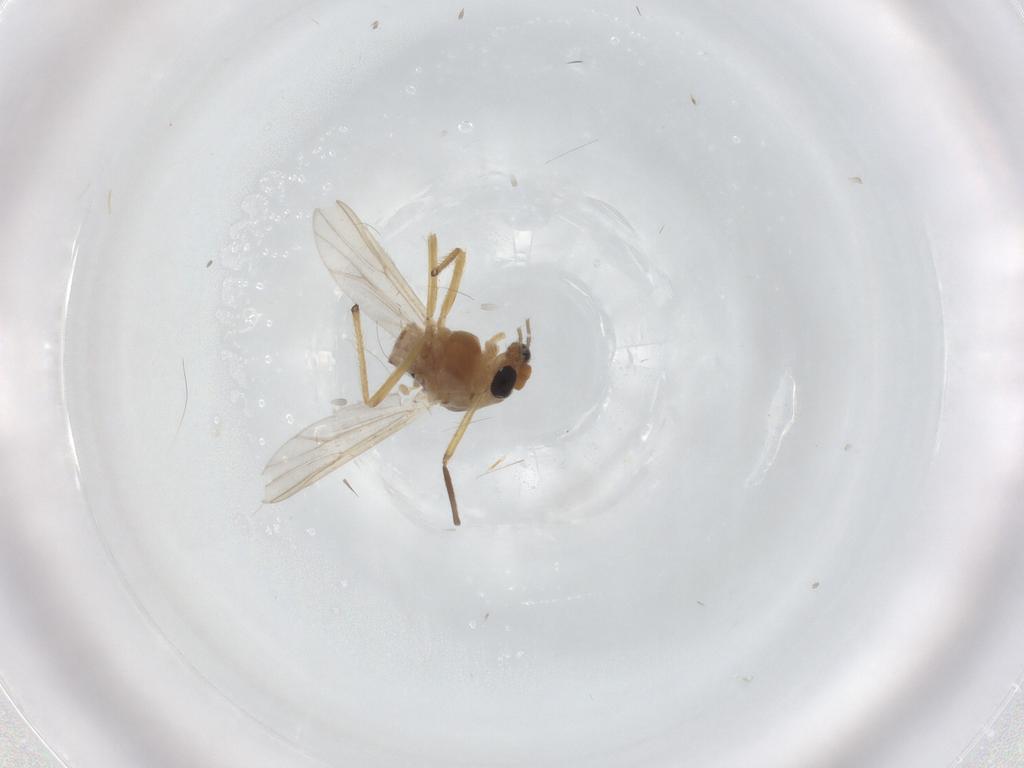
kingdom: Animalia
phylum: Arthropoda
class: Insecta
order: Diptera
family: Chironomidae
